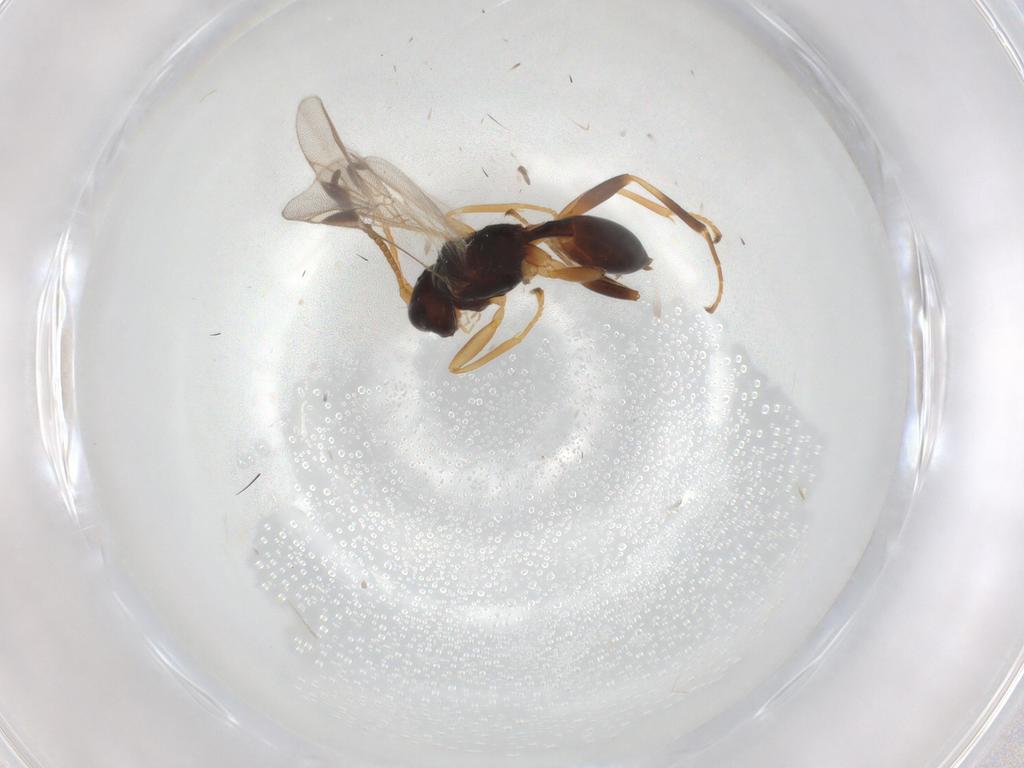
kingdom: Animalia
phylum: Arthropoda
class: Insecta
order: Hymenoptera
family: Braconidae
